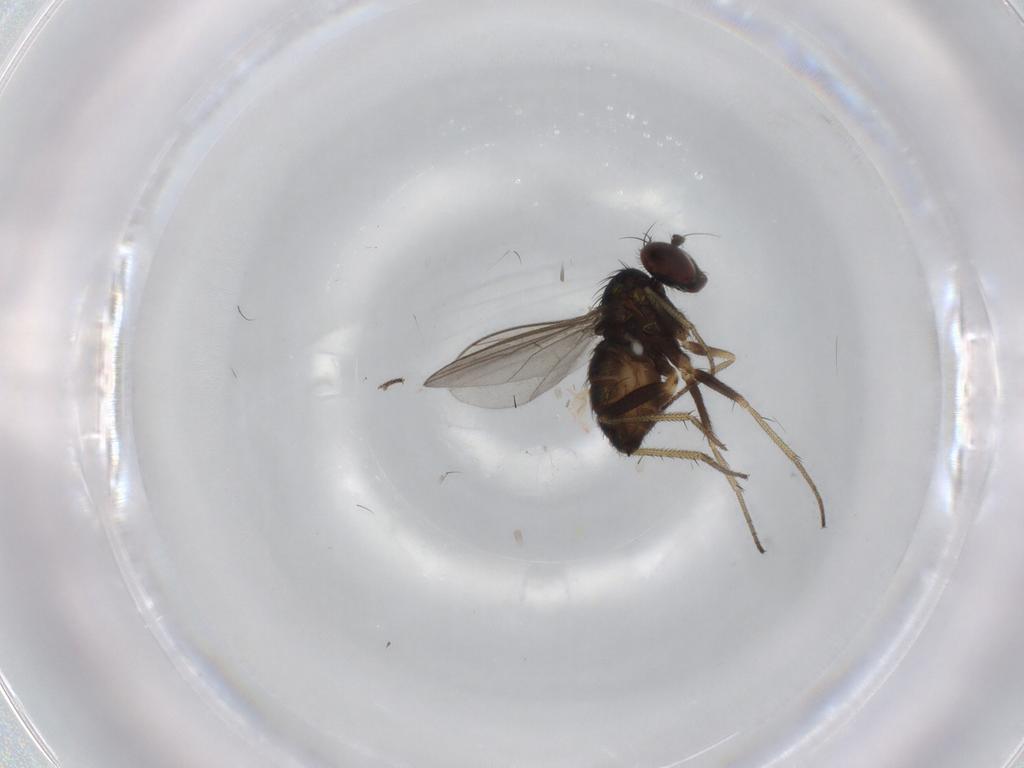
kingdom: Animalia
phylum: Arthropoda
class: Insecta
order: Diptera
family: Dolichopodidae
